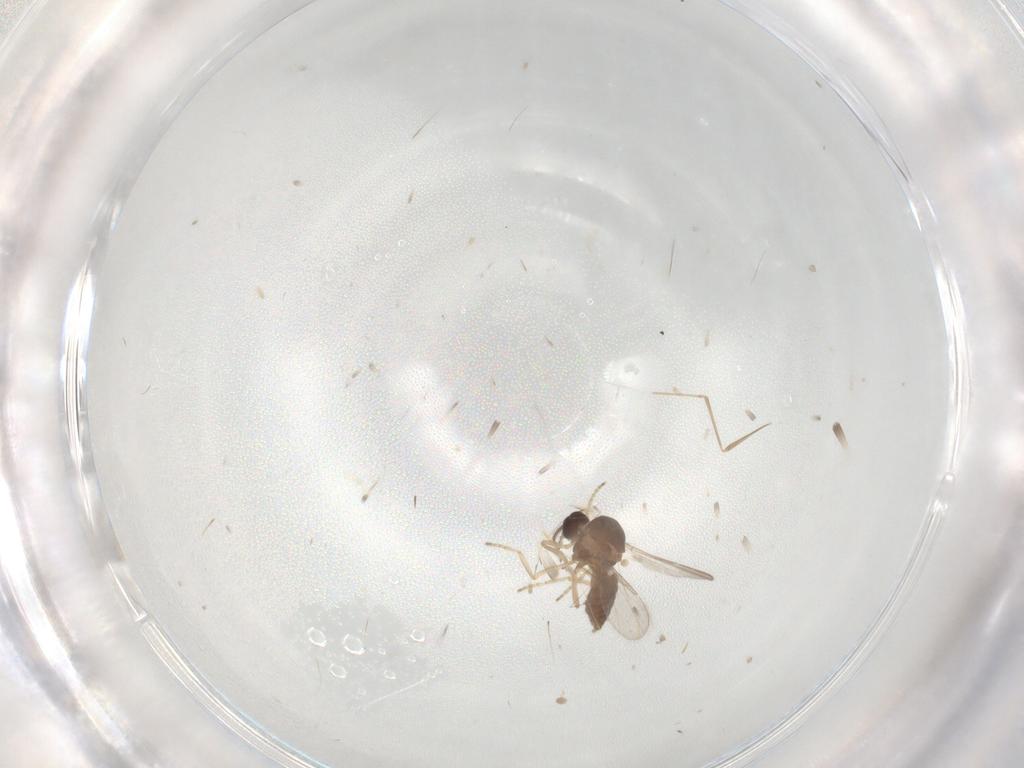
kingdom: Animalia
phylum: Arthropoda
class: Insecta
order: Diptera
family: Ceratopogonidae
